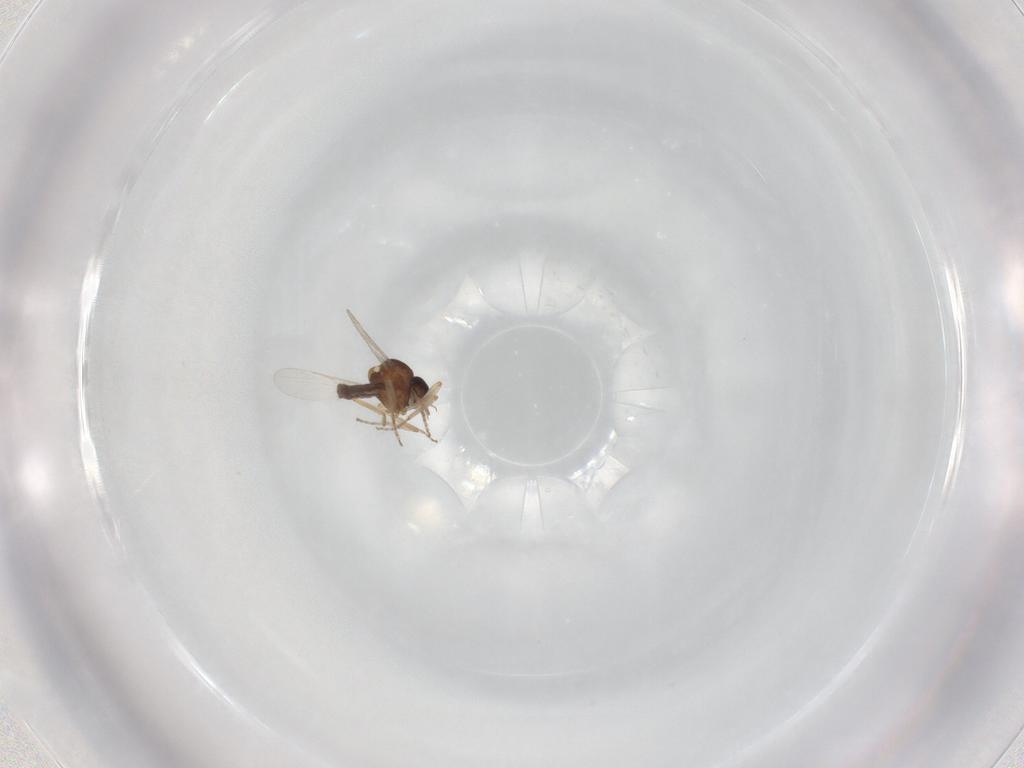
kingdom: Animalia
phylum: Arthropoda
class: Insecta
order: Diptera
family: Ceratopogonidae
